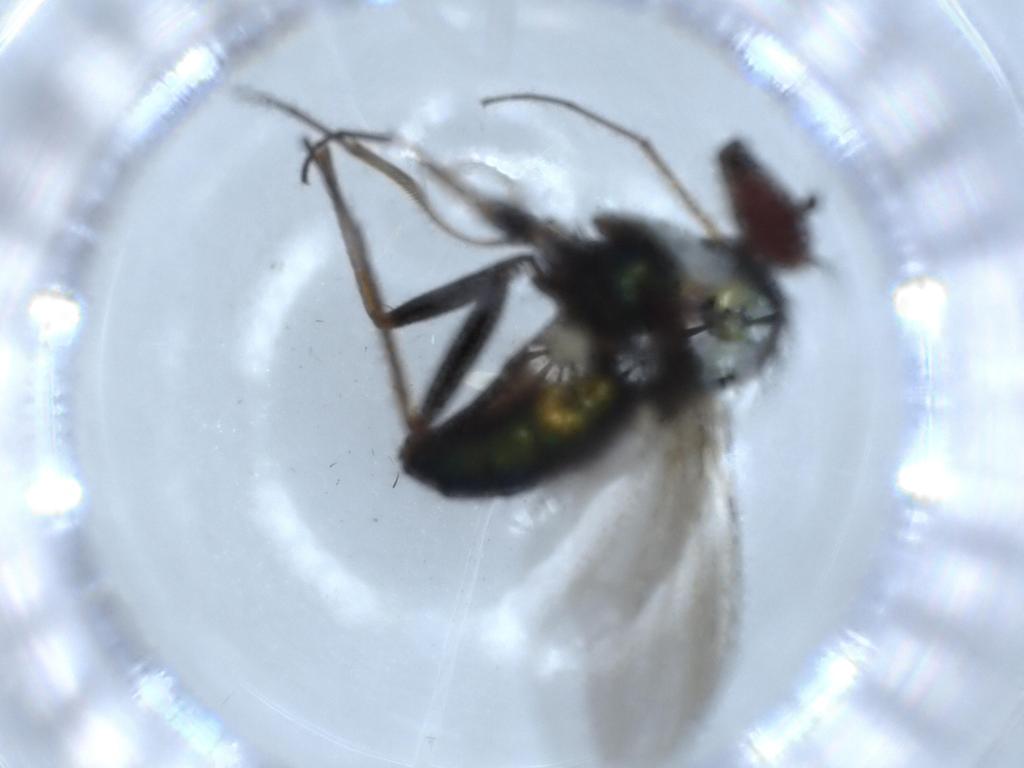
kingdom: Animalia
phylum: Arthropoda
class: Insecta
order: Diptera
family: Dolichopodidae
